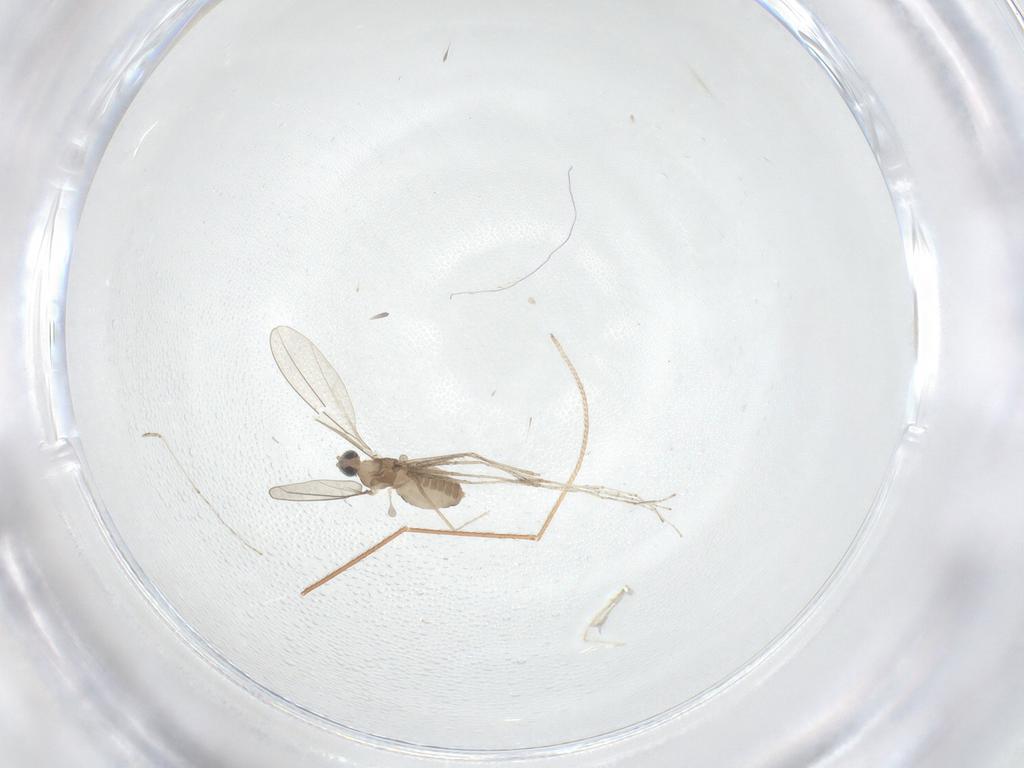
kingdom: Animalia
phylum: Arthropoda
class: Insecta
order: Diptera
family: Cecidomyiidae
